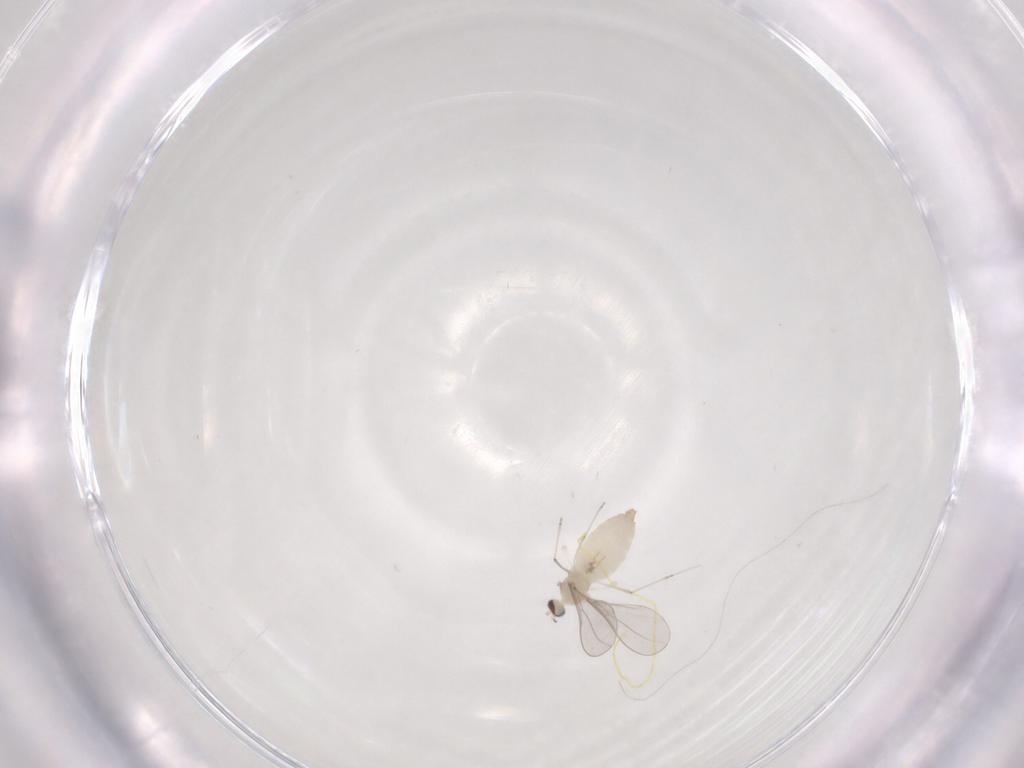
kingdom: Animalia
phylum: Arthropoda
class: Insecta
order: Diptera
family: Cecidomyiidae
